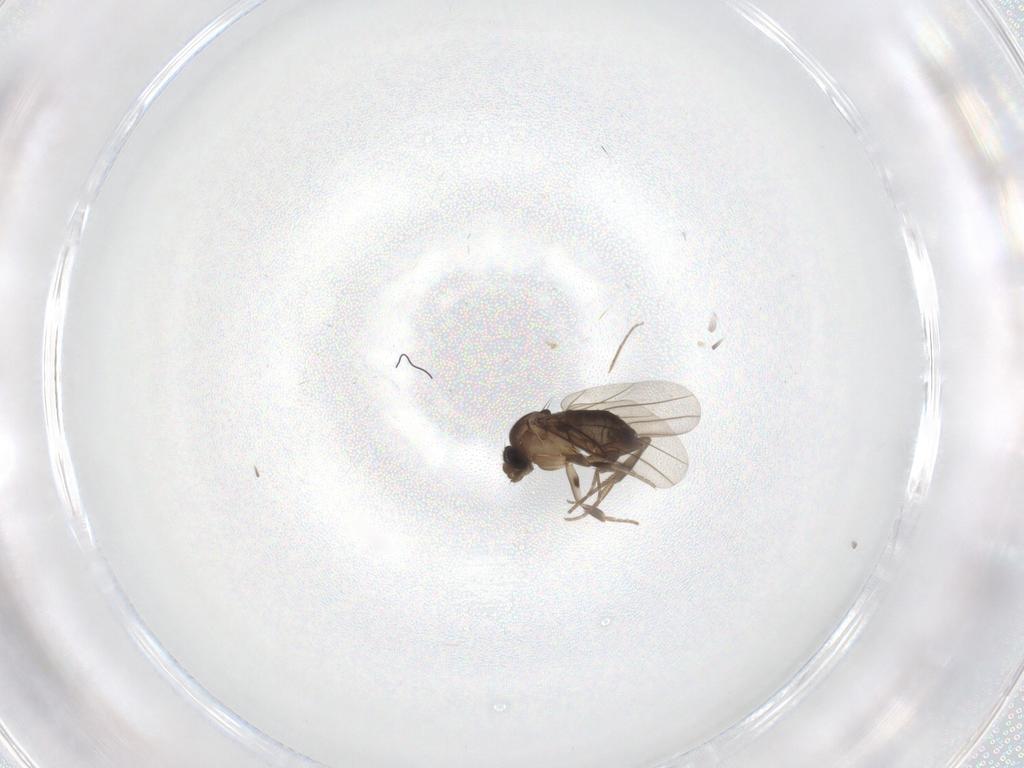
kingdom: Animalia
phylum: Arthropoda
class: Insecta
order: Diptera
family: Phoridae
